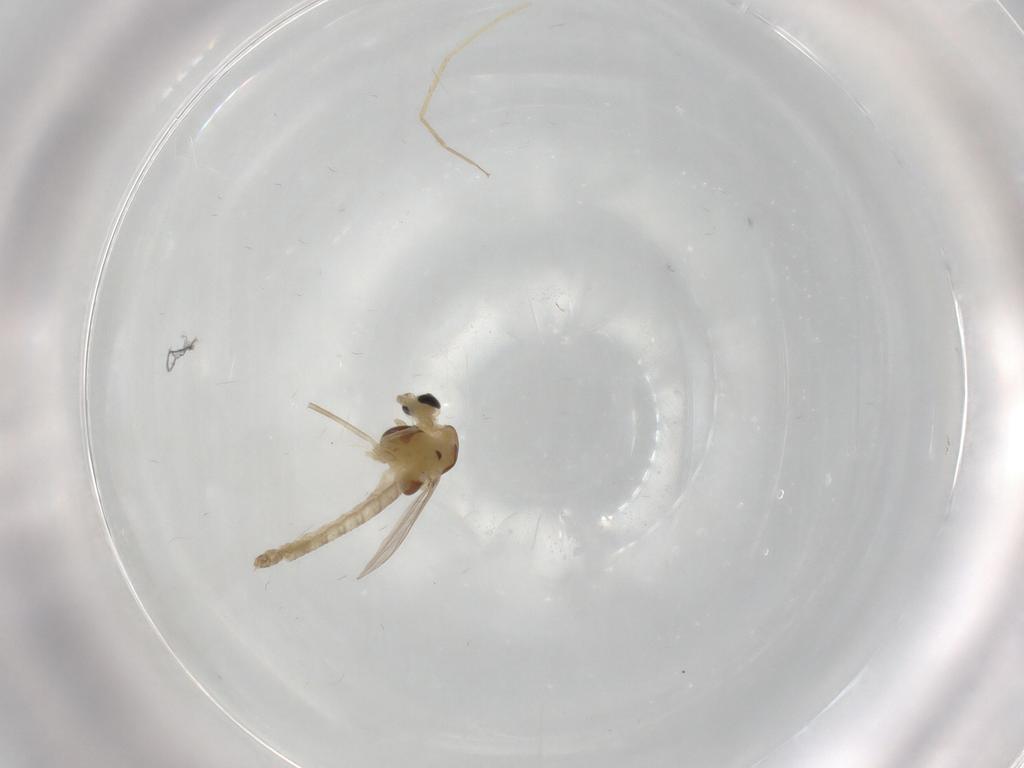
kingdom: Animalia
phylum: Arthropoda
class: Insecta
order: Diptera
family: Chironomidae
